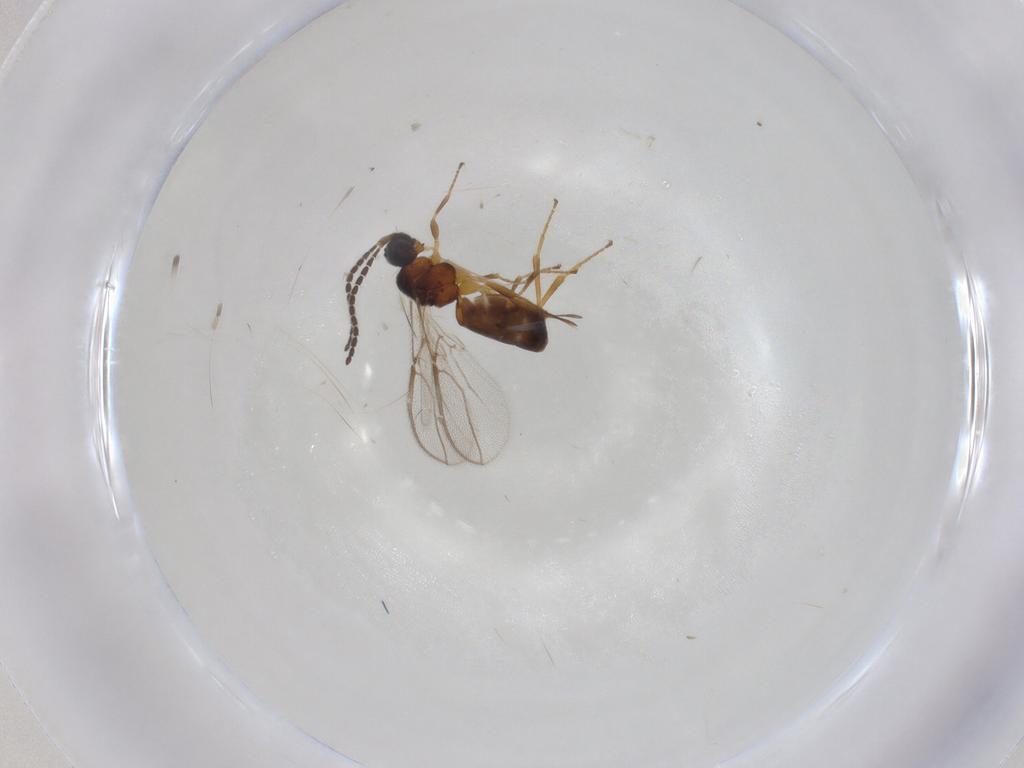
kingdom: Animalia
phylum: Arthropoda
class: Insecta
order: Hymenoptera
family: Braconidae
